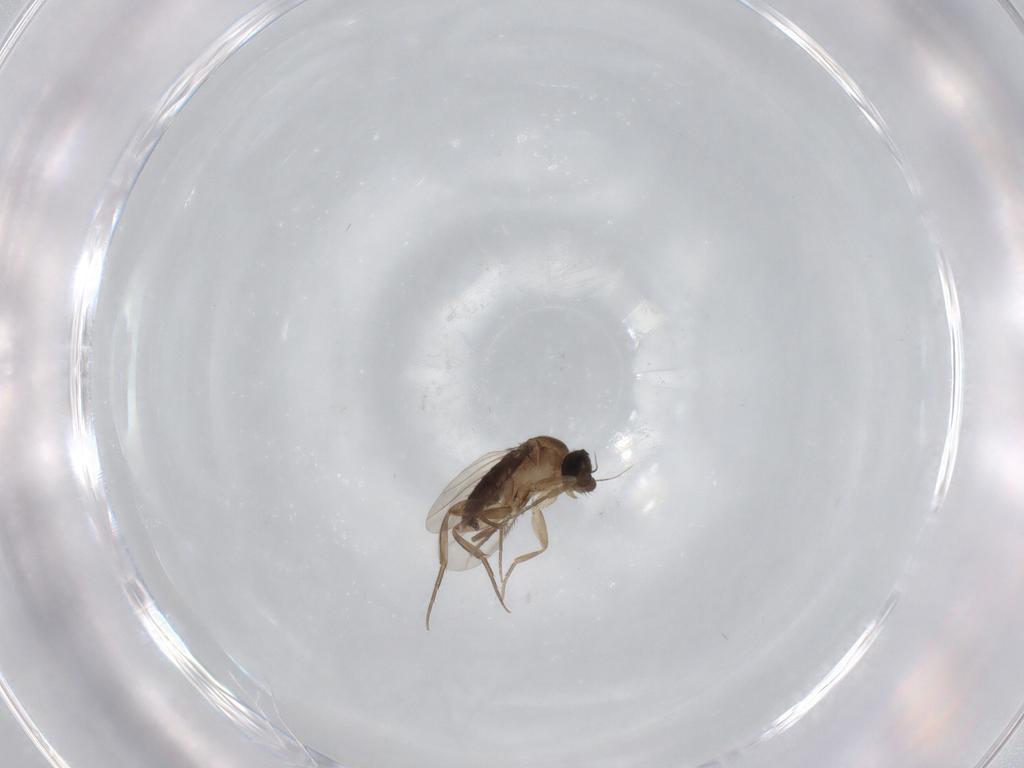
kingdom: Animalia
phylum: Arthropoda
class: Insecta
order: Diptera
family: Phoridae
